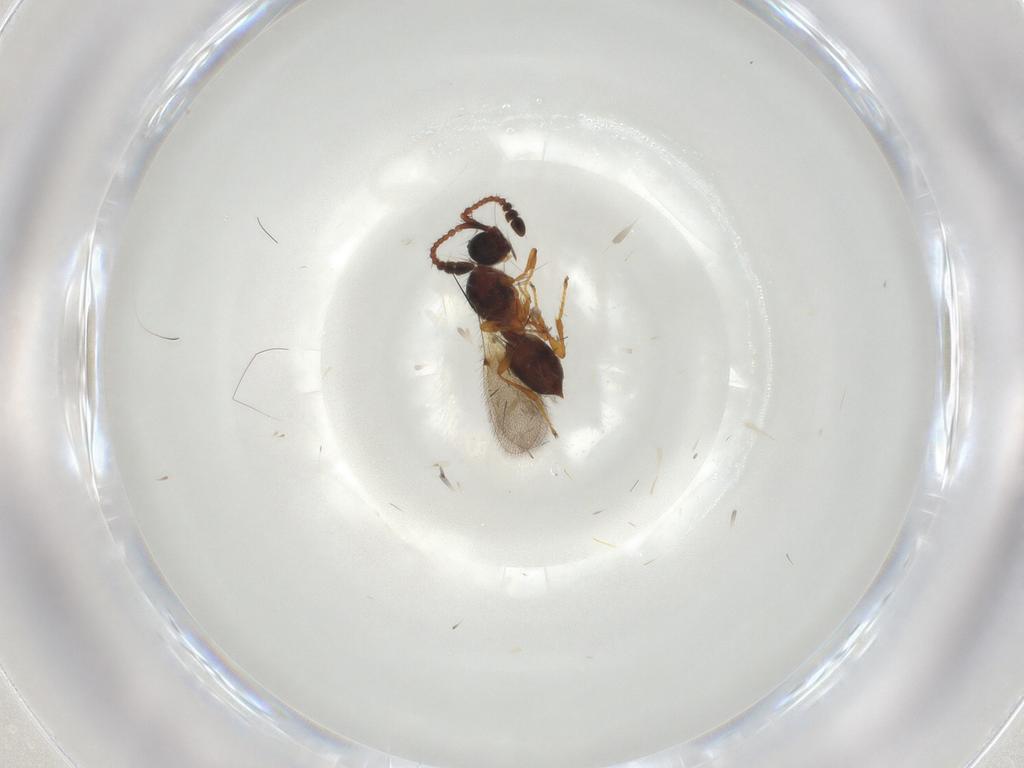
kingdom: Animalia
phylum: Arthropoda
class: Insecta
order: Hymenoptera
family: Diapriidae
